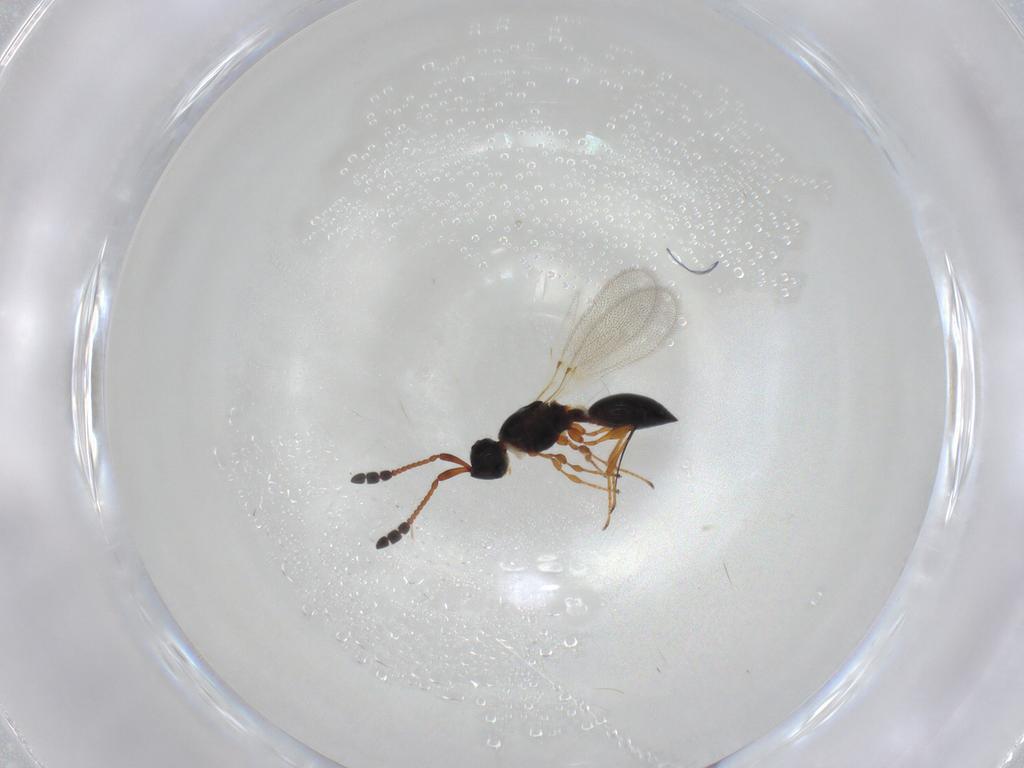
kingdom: Animalia
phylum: Arthropoda
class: Insecta
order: Hymenoptera
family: Diapriidae
